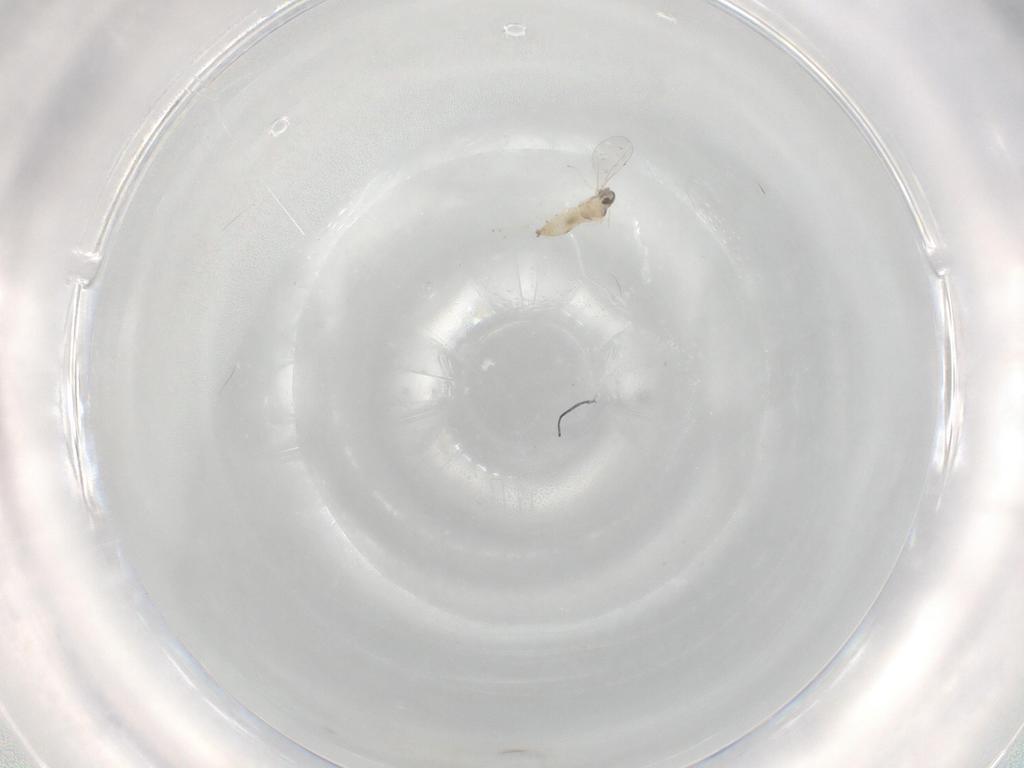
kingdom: Animalia
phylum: Arthropoda
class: Insecta
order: Diptera
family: Cecidomyiidae
